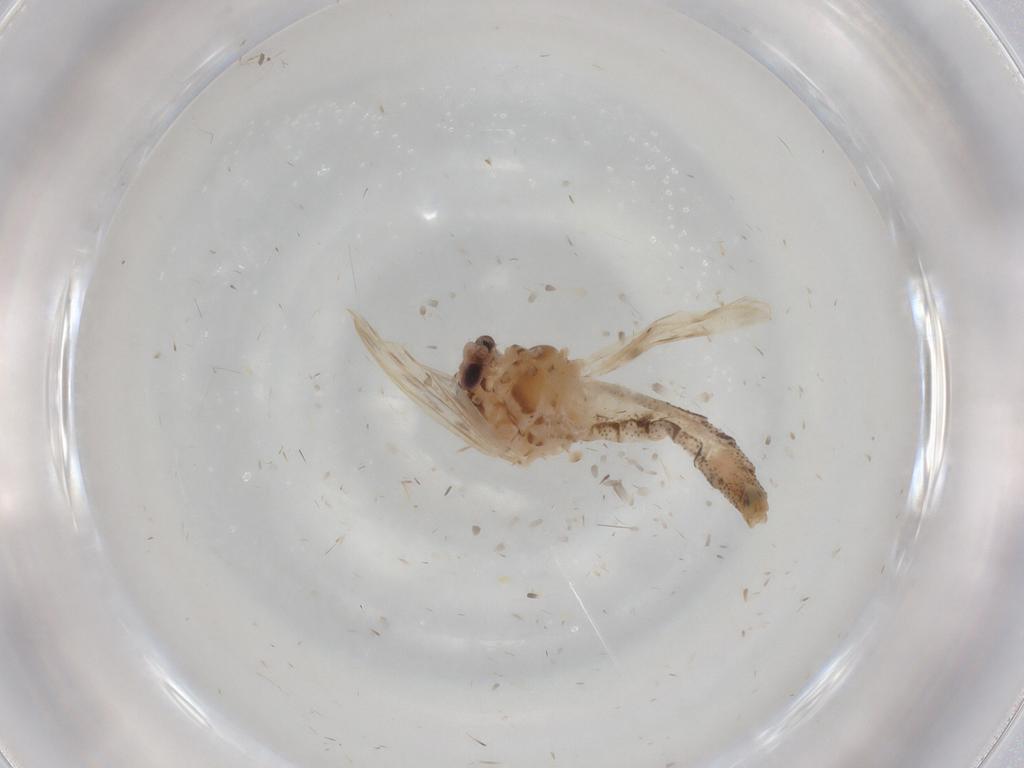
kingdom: Animalia
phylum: Arthropoda
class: Insecta
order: Diptera
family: Chaoboridae
